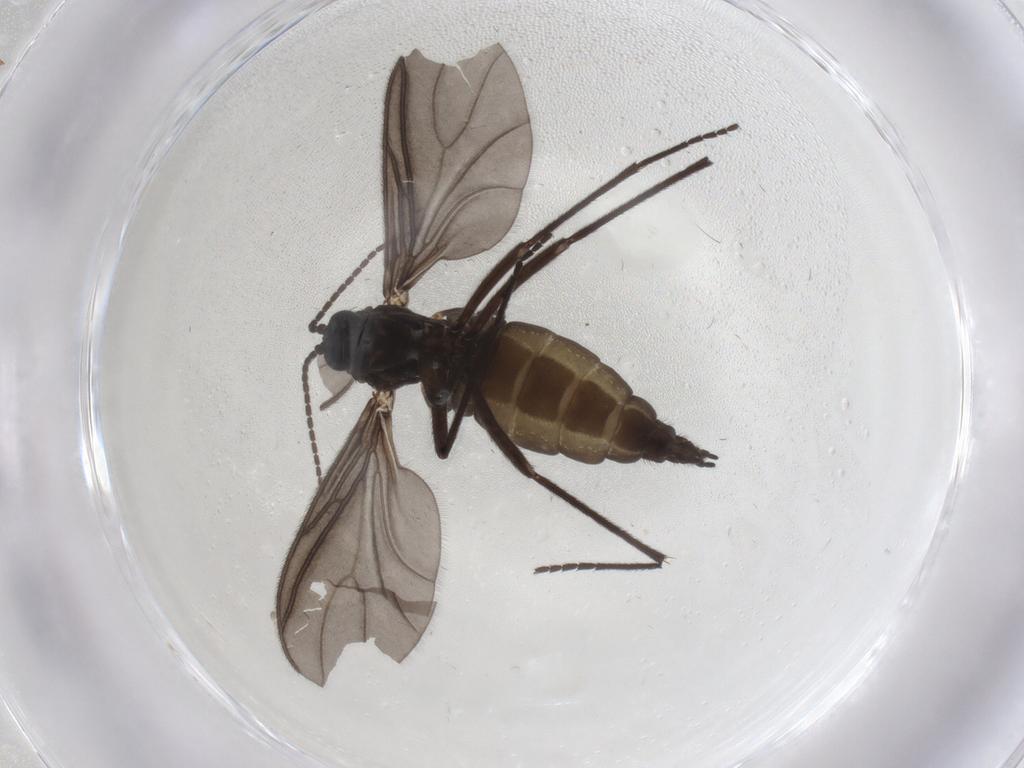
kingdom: Animalia
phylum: Arthropoda
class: Insecta
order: Diptera
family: Sciaridae
